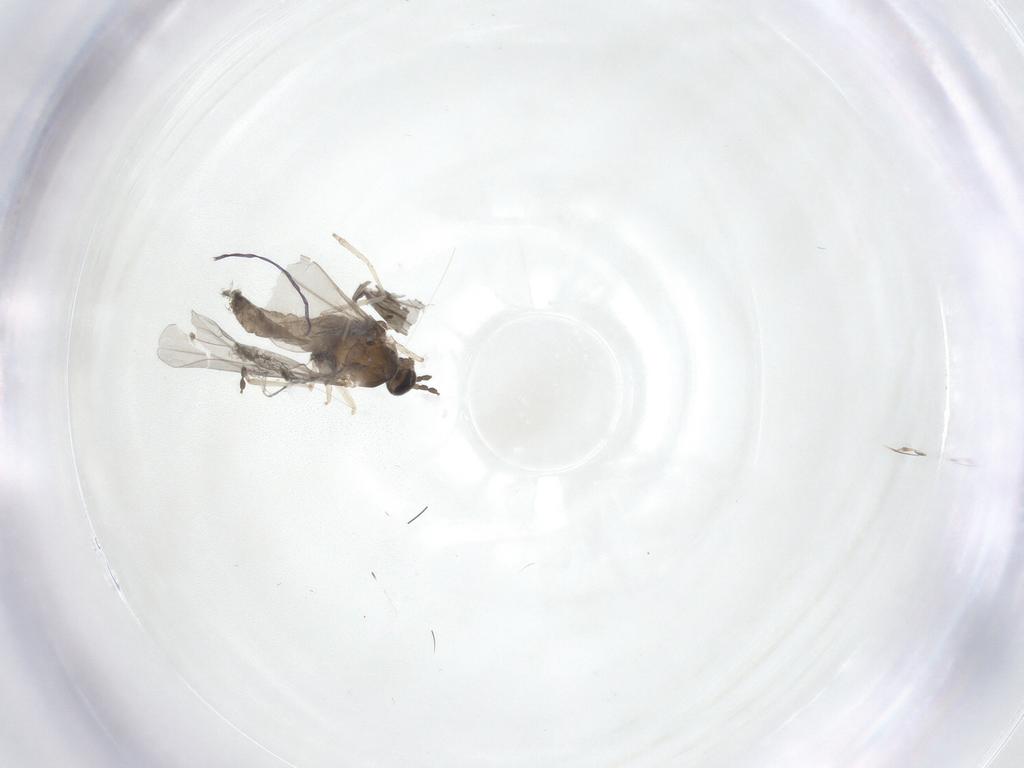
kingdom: Animalia
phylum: Arthropoda
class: Insecta
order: Diptera
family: Cecidomyiidae
